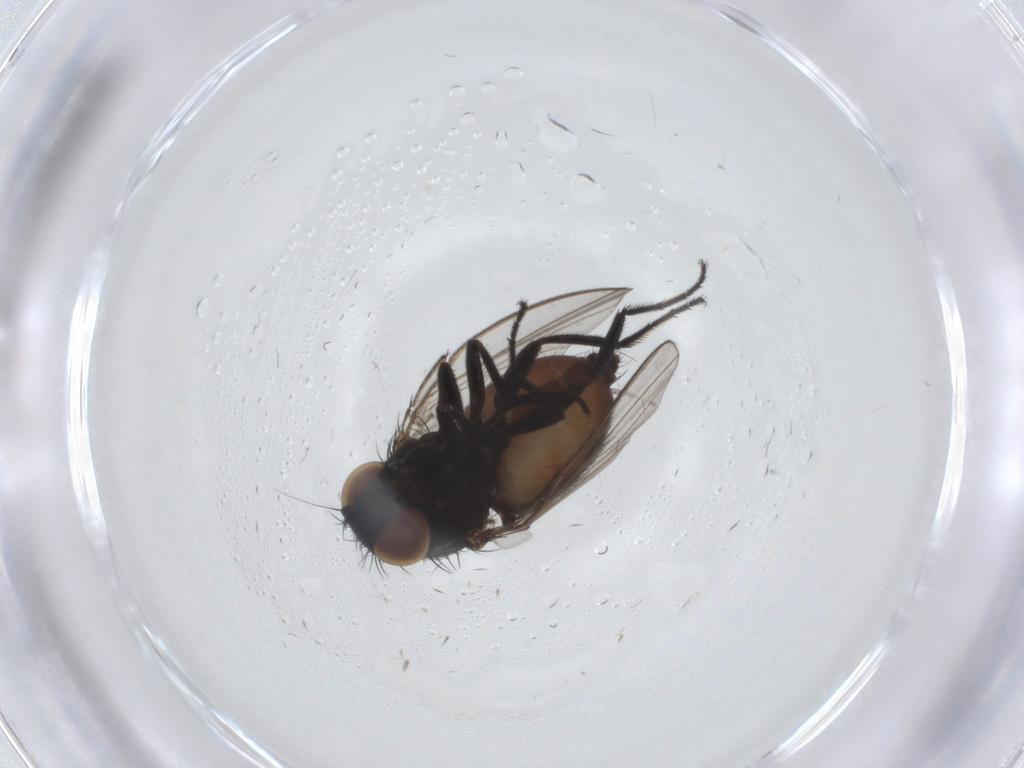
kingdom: Animalia
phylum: Arthropoda
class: Insecta
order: Diptera
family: Milichiidae
